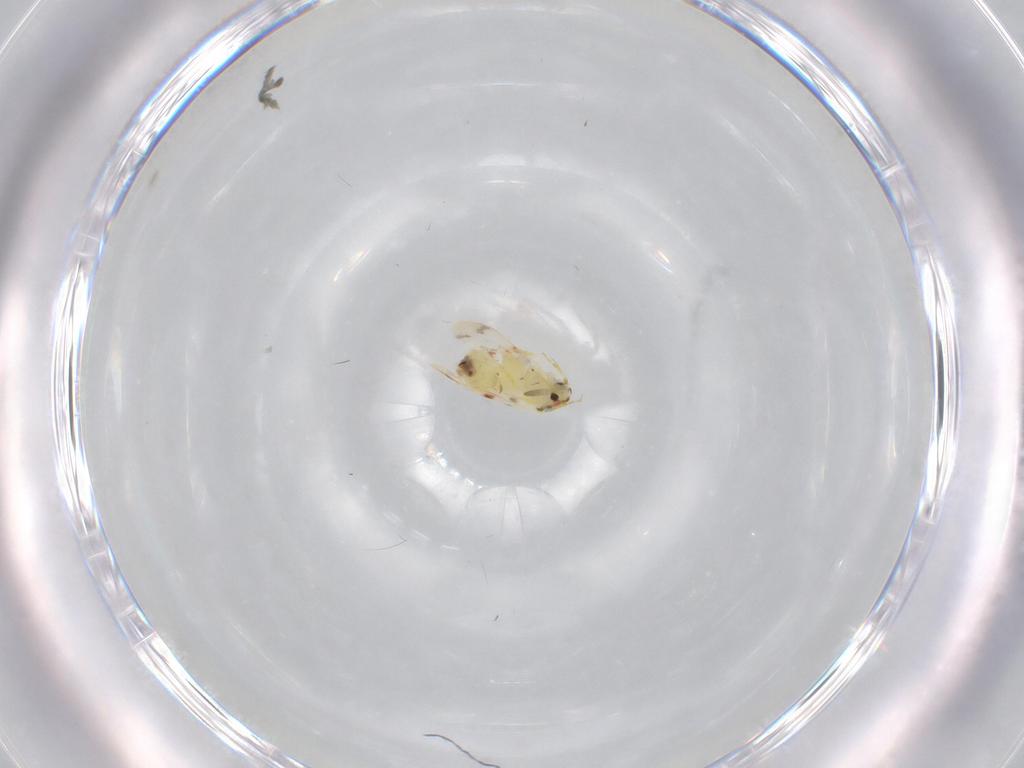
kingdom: Animalia
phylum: Arthropoda
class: Insecta
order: Hemiptera
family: Aleyrodidae
